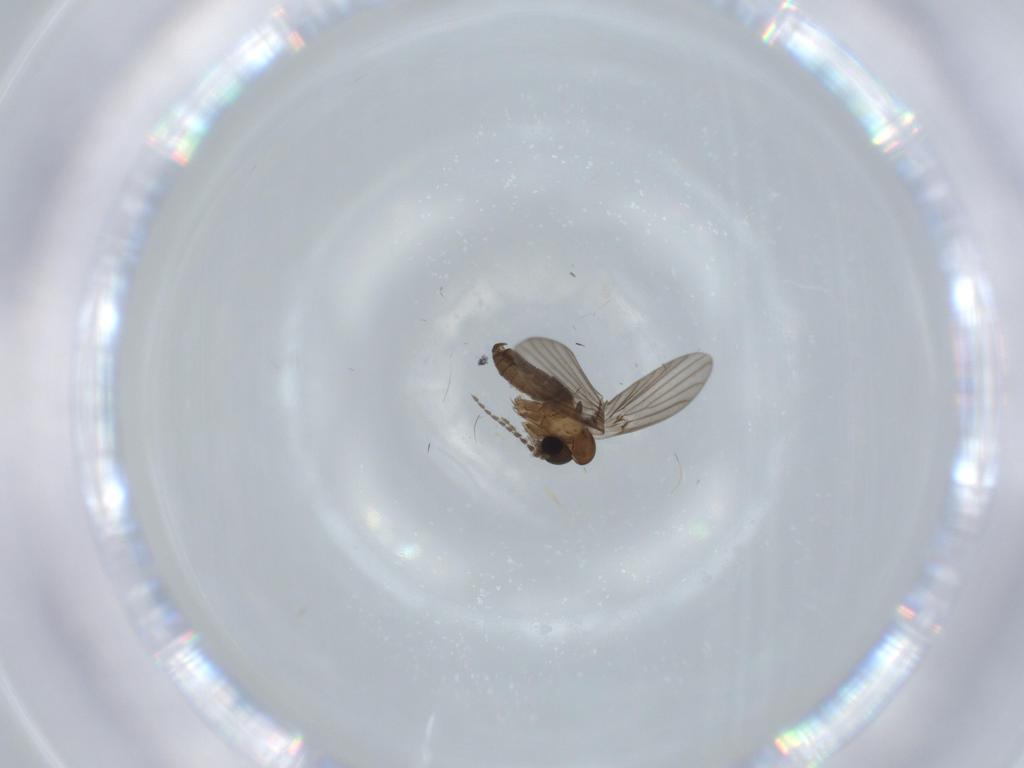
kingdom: Animalia
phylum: Arthropoda
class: Insecta
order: Diptera
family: Psychodidae
